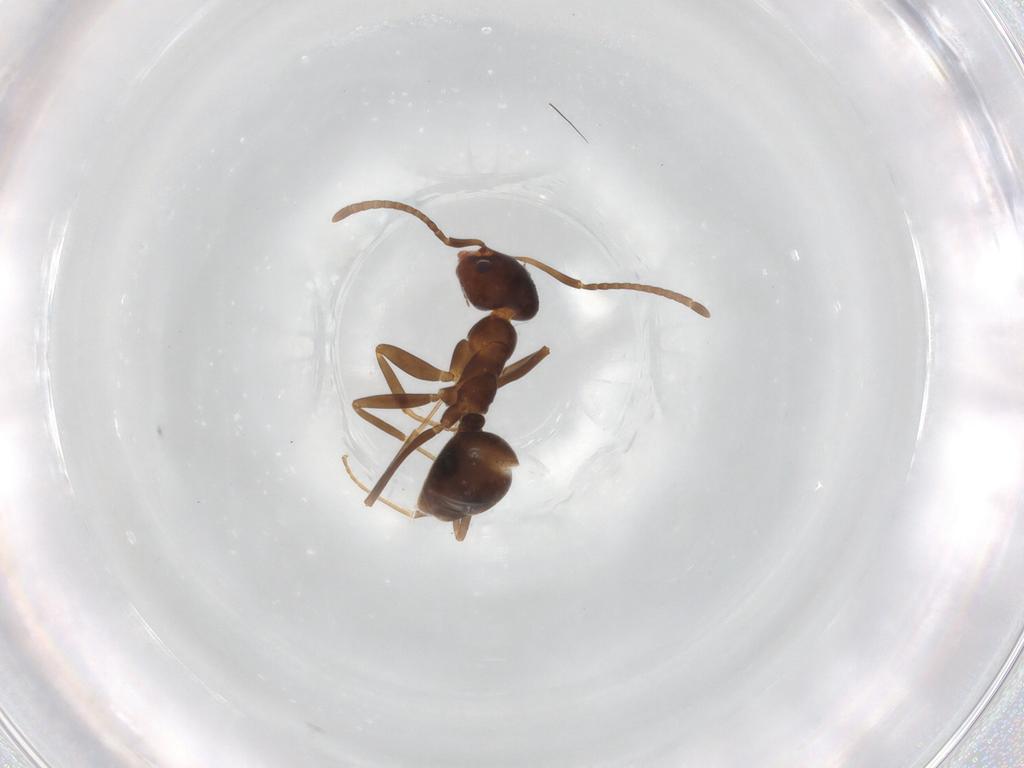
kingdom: Animalia
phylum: Arthropoda
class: Insecta
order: Hymenoptera
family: Formicidae
